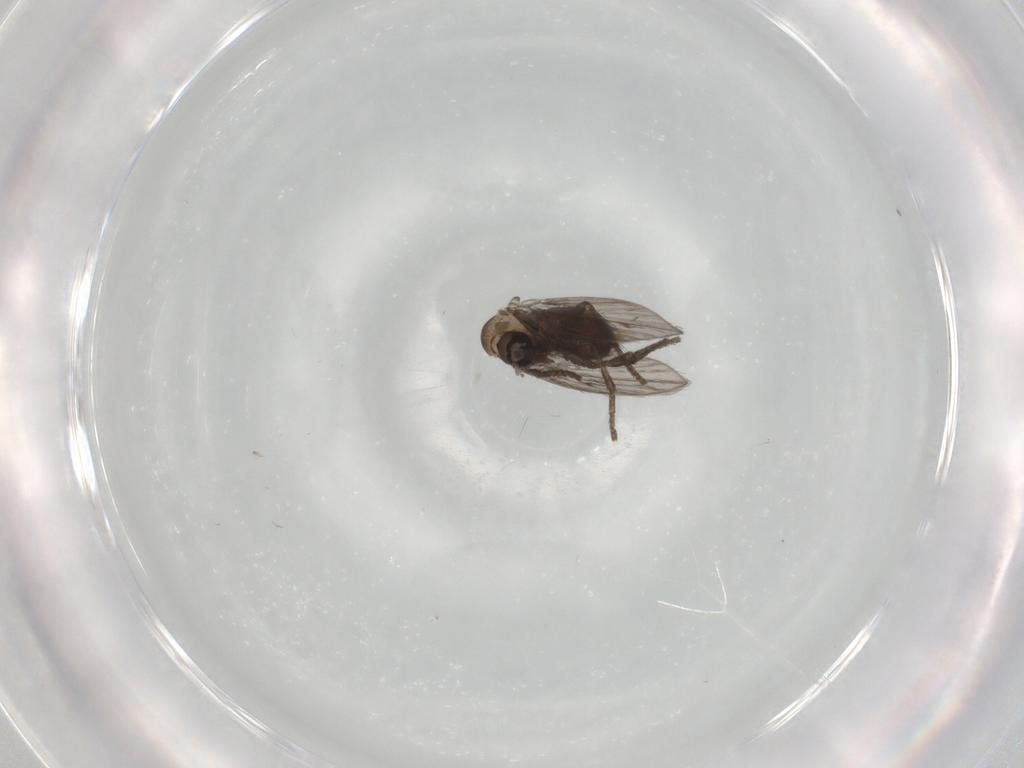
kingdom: Animalia
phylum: Arthropoda
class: Insecta
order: Diptera
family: Psychodidae
